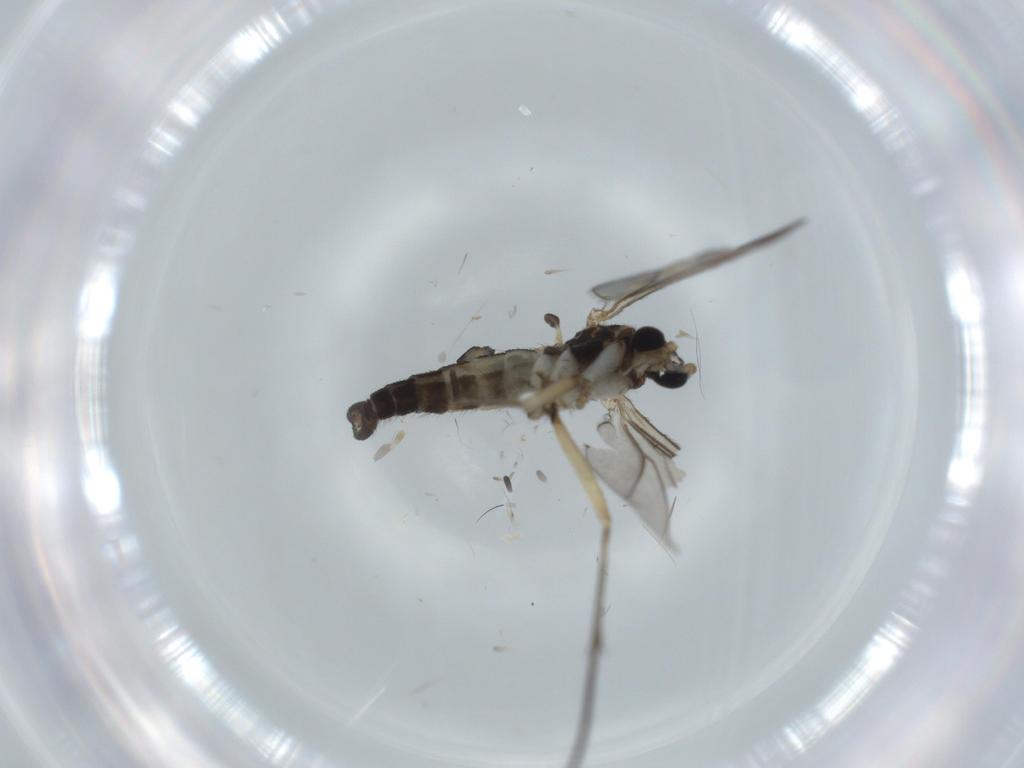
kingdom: Animalia
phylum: Arthropoda
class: Insecta
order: Diptera
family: Sciaridae
